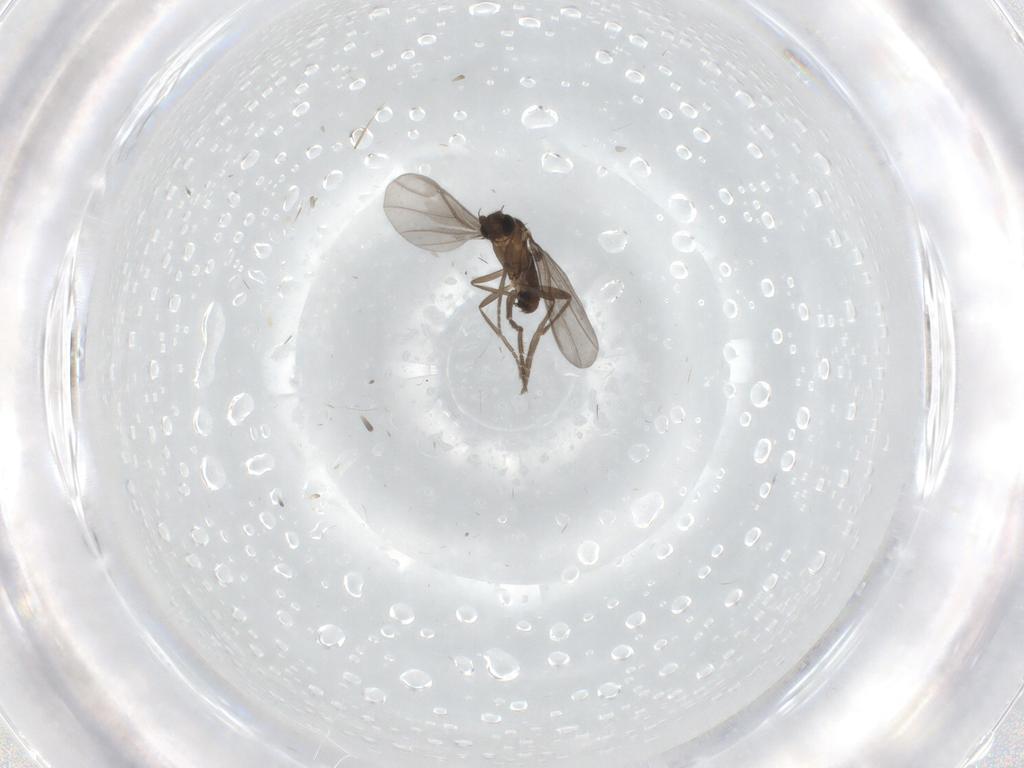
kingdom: Animalia
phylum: Arthropoda
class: Insecta
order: Diptera
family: Phoridae
